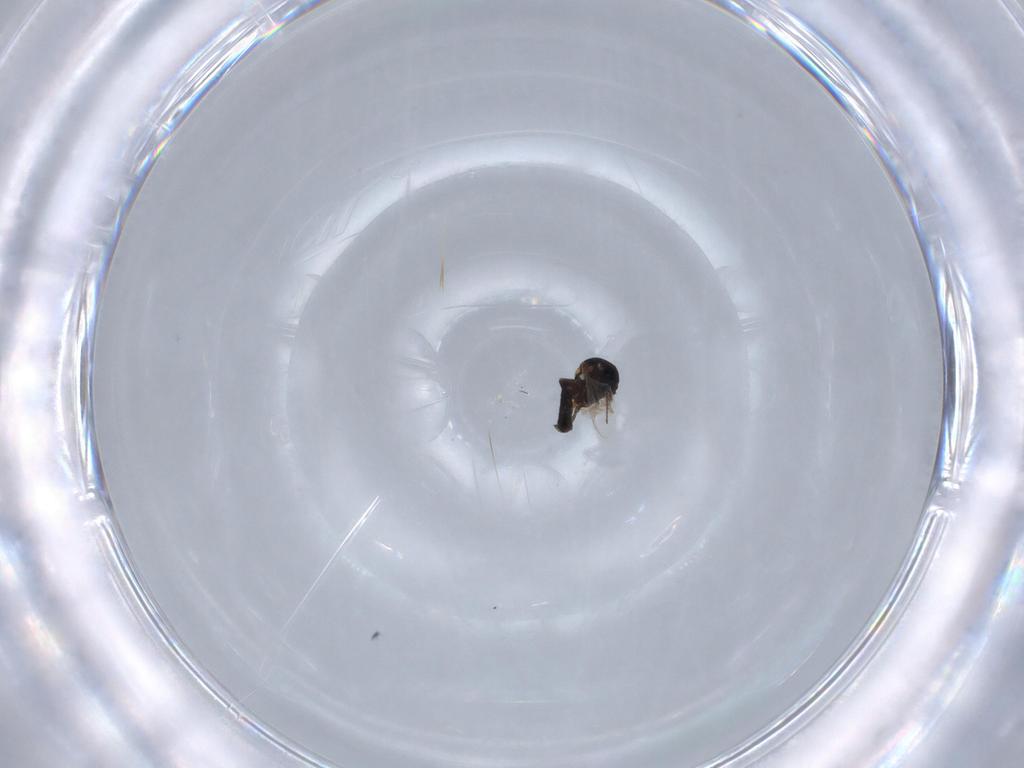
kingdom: Animalia
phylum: Arthropoda
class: Insecta
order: Diptera
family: Ceratopogonidae
